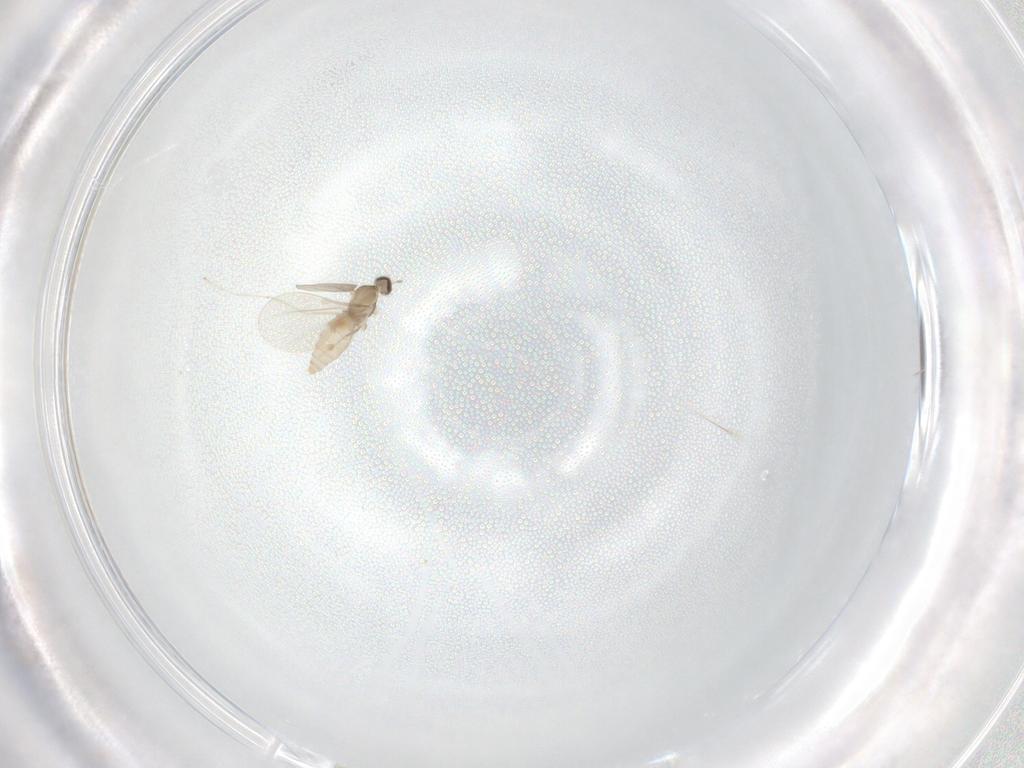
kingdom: Animalia
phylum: Arthropoda
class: Insecta
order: Diptera
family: Cecidomyiidae
